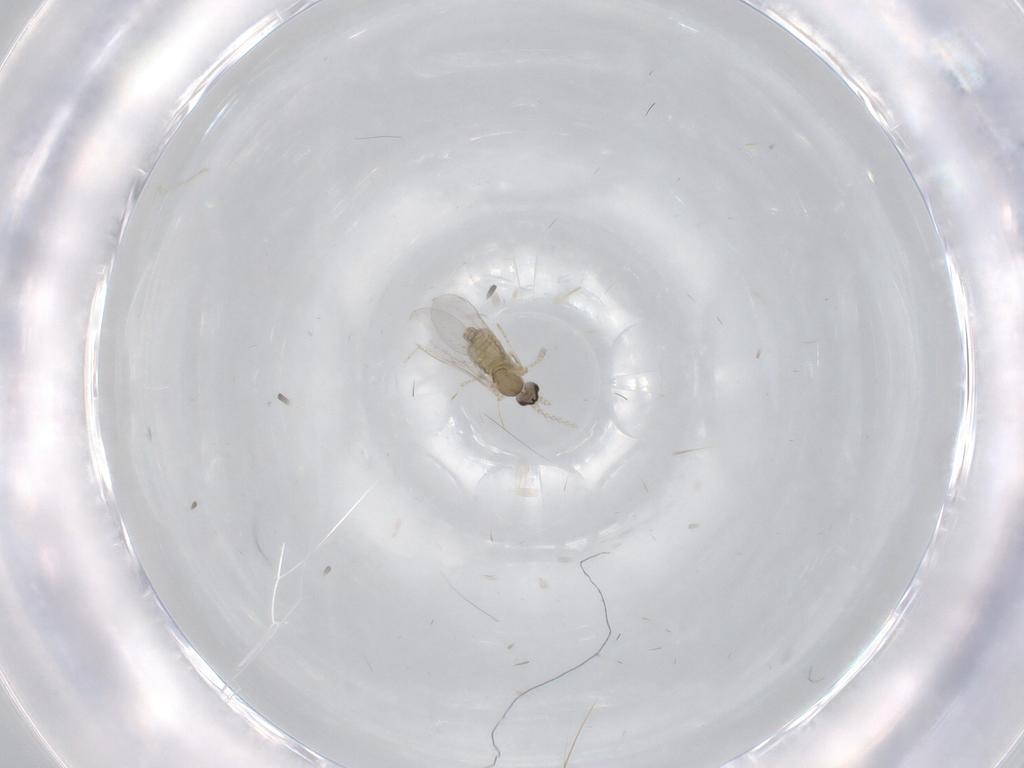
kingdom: Animalia
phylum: Arthropoda
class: Insecta
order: Diptera
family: Cecidomyiidae
